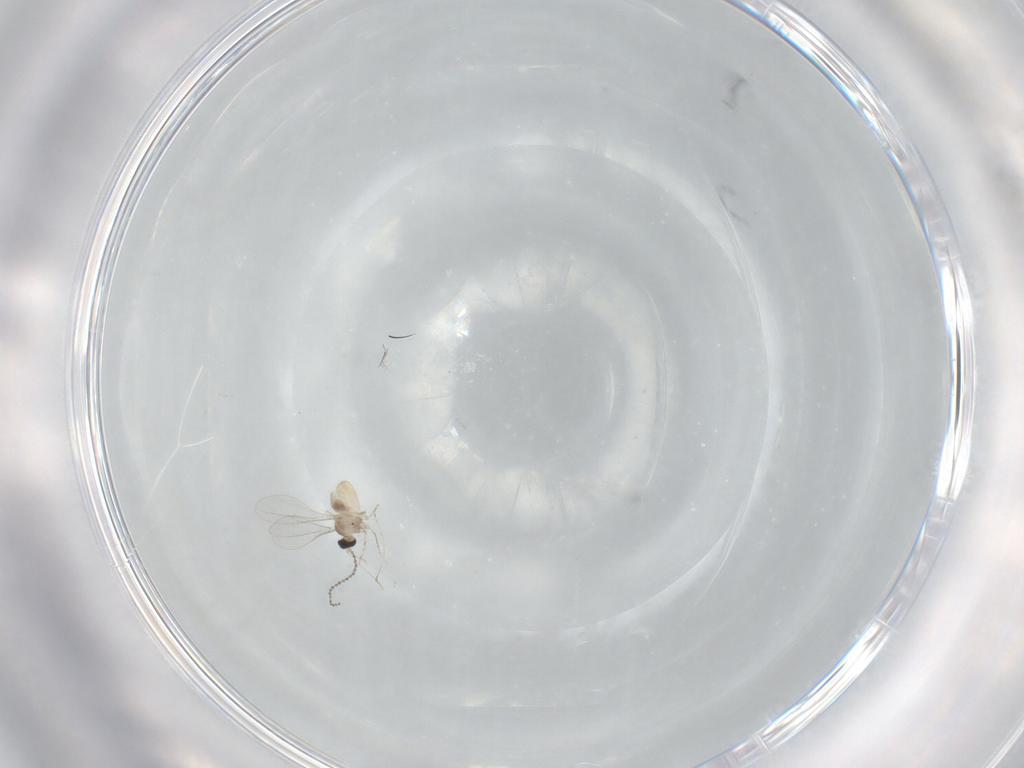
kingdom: Animalia
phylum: Arthropoda
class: Insecta
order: Diptera
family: Cecidomyiidae
